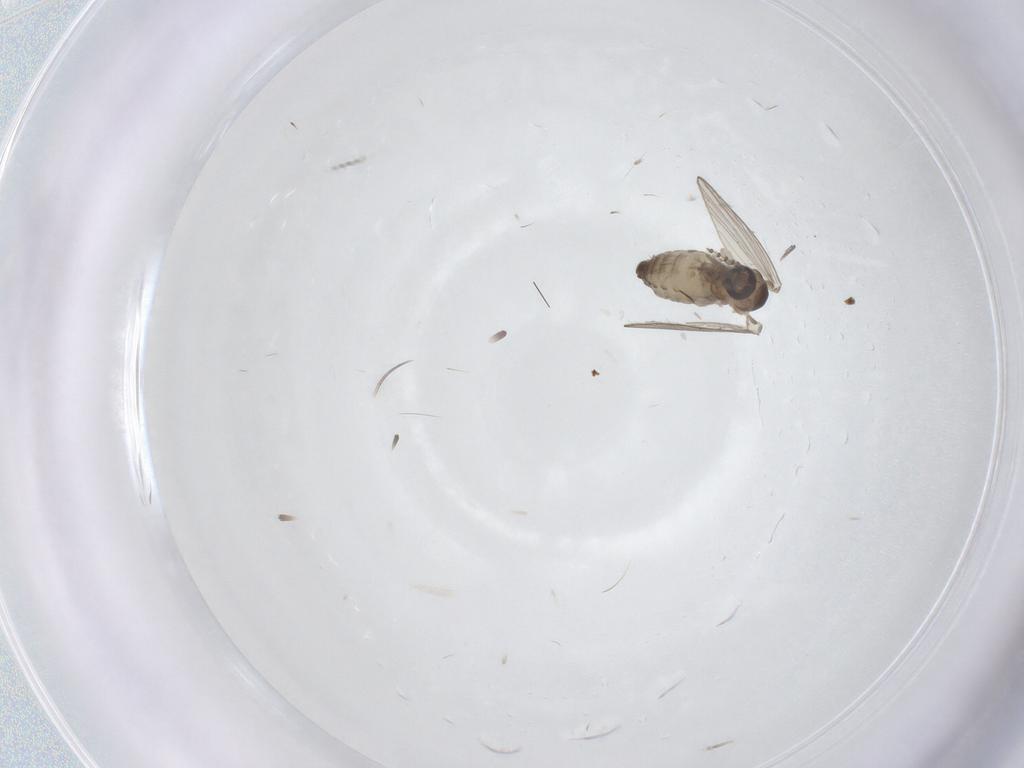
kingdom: Animalia
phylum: Arthropoda
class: Insecta
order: Diptera
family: Psychodidae
